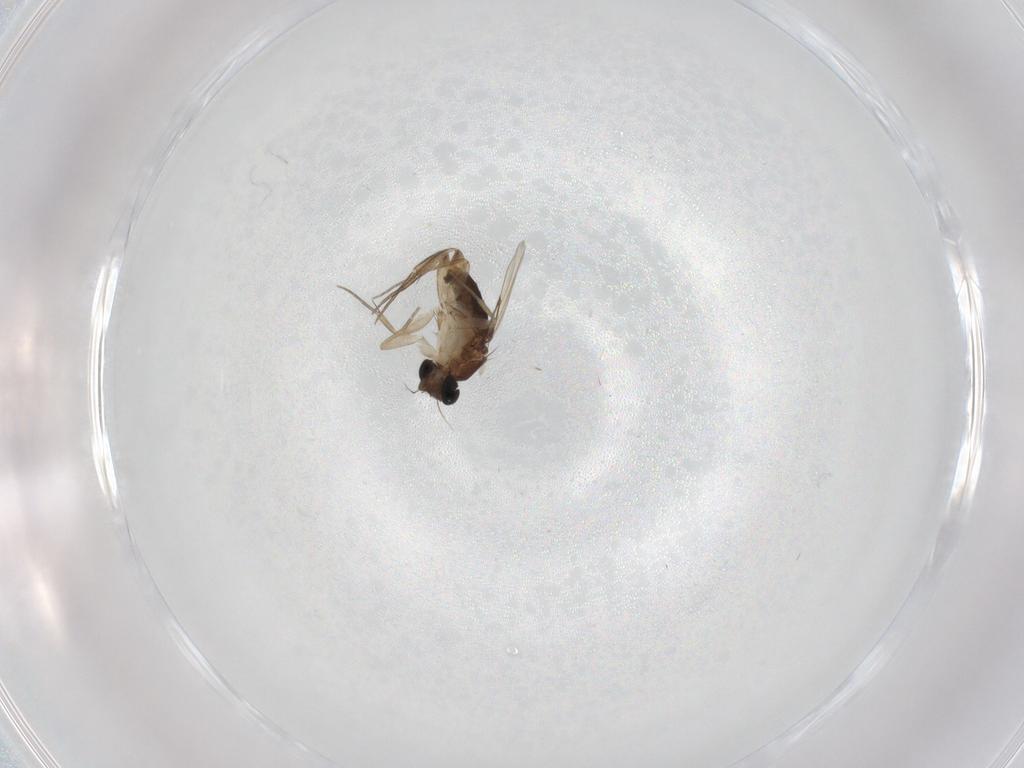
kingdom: Animalia
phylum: Arthropoda
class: Insecta
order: Diptera
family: Phoridae
